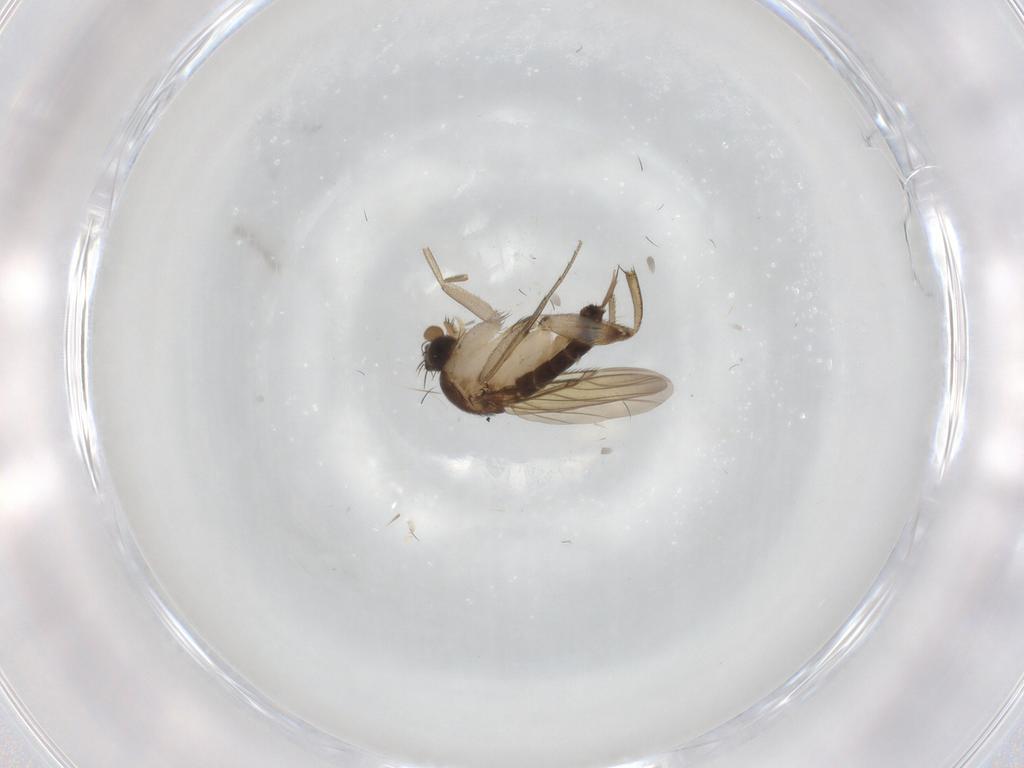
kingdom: Animalia
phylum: Arthropoda
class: Insecta
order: Diptera
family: Phoridae
